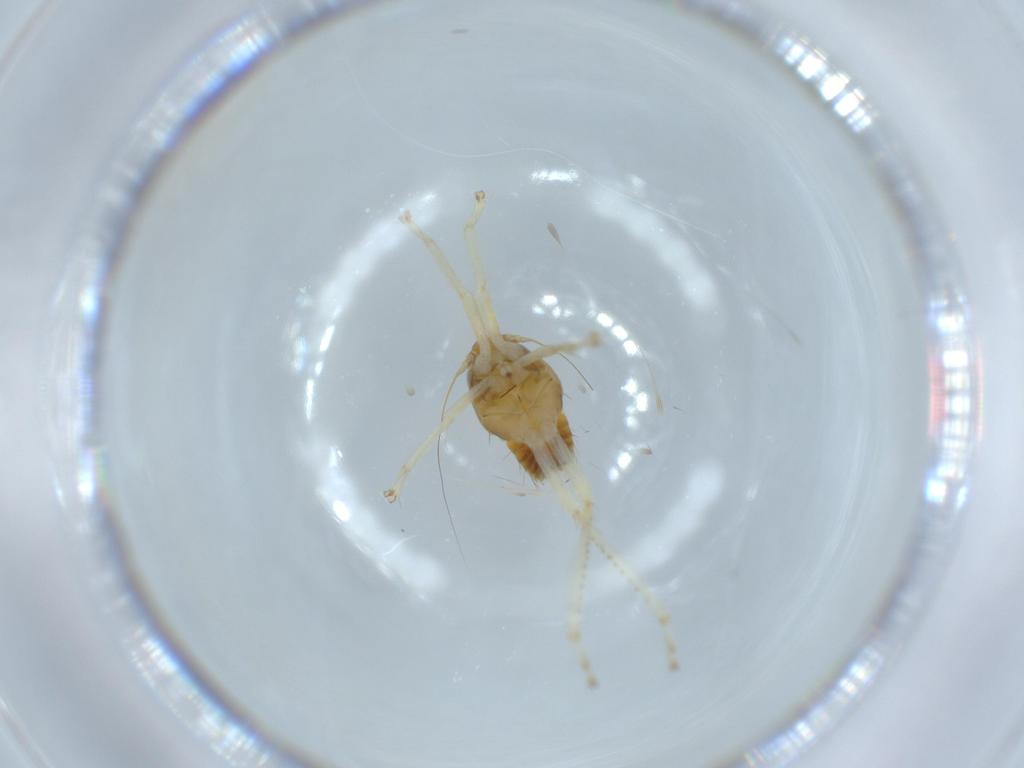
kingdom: Animalia
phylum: Arthropoda
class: Insecta
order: Hemiptera
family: Cicadellidae
